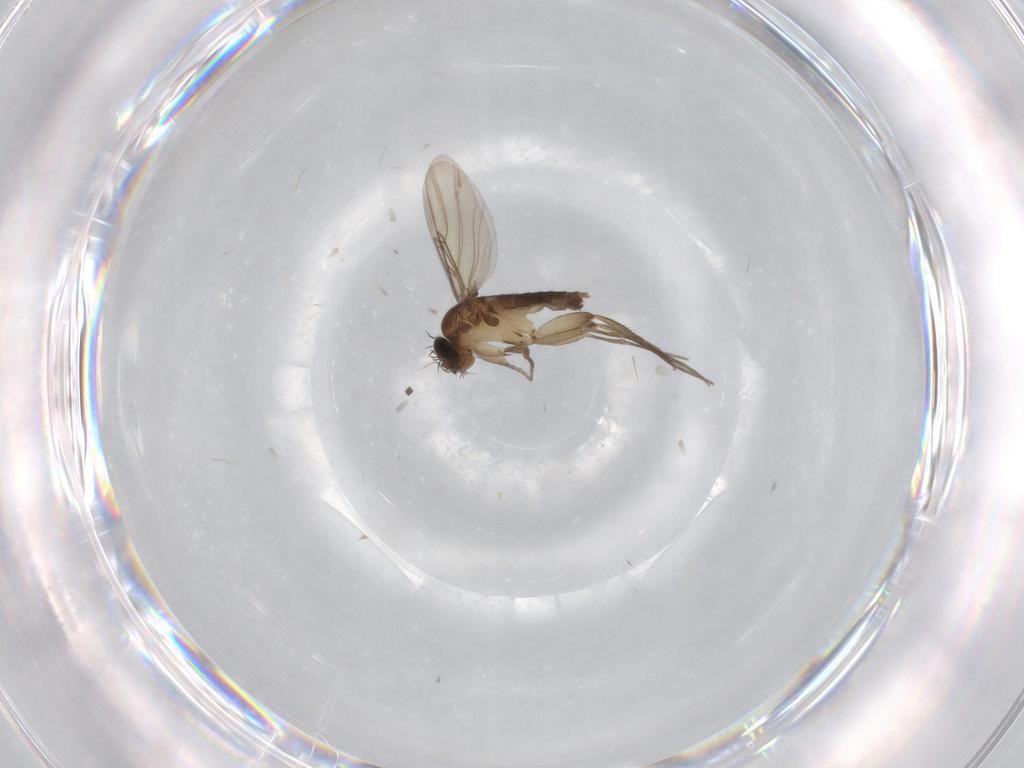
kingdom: Animalia
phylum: Arthropoda
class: Insecta
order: Diptera
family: Phoridae
